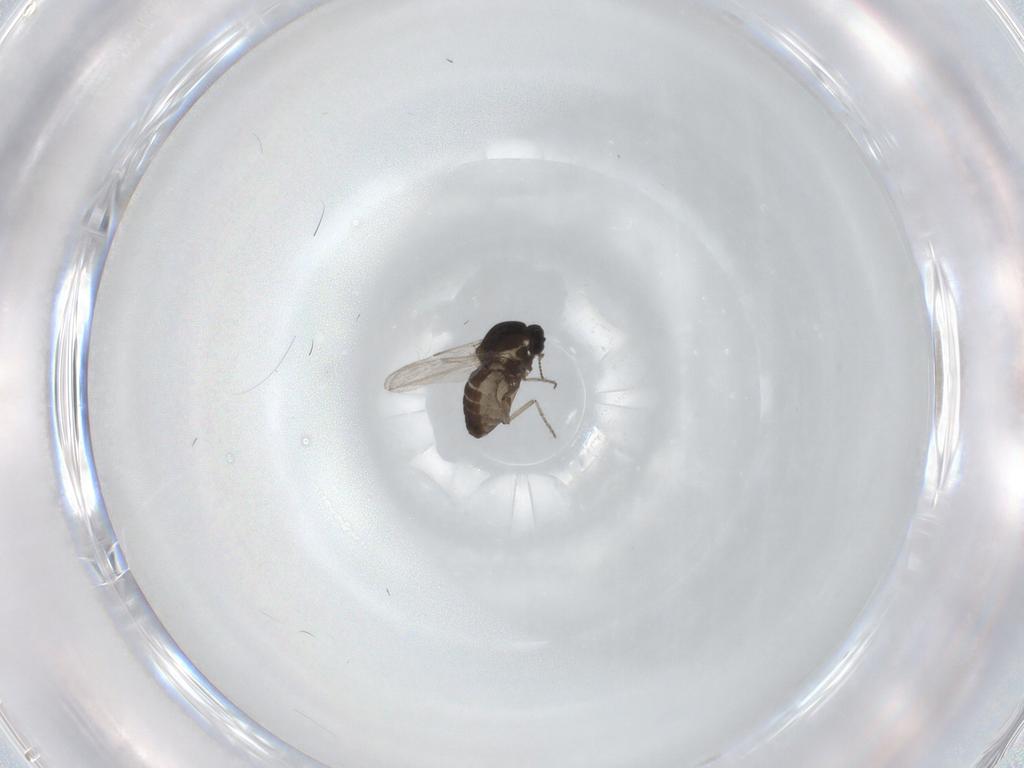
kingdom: Animalia
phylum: Arthropoda
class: Insecta
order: Diptera
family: Ceratopogonidae
